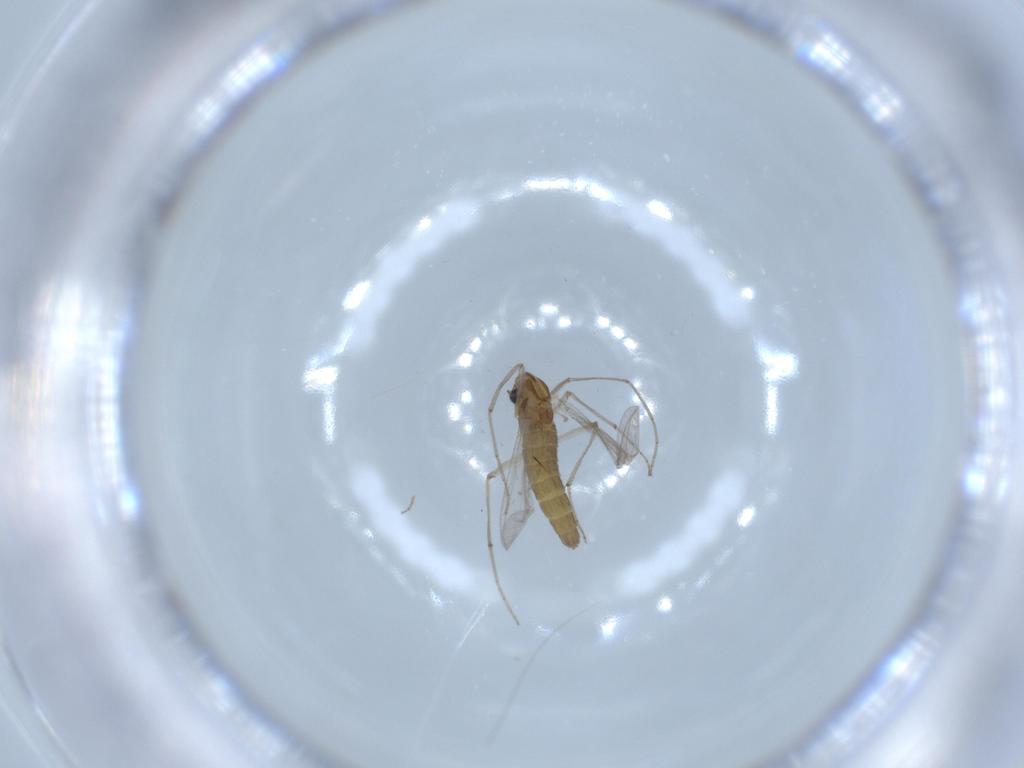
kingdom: Animalia
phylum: Arthropoda
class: Insecta
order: Diptera
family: Chironomidae
